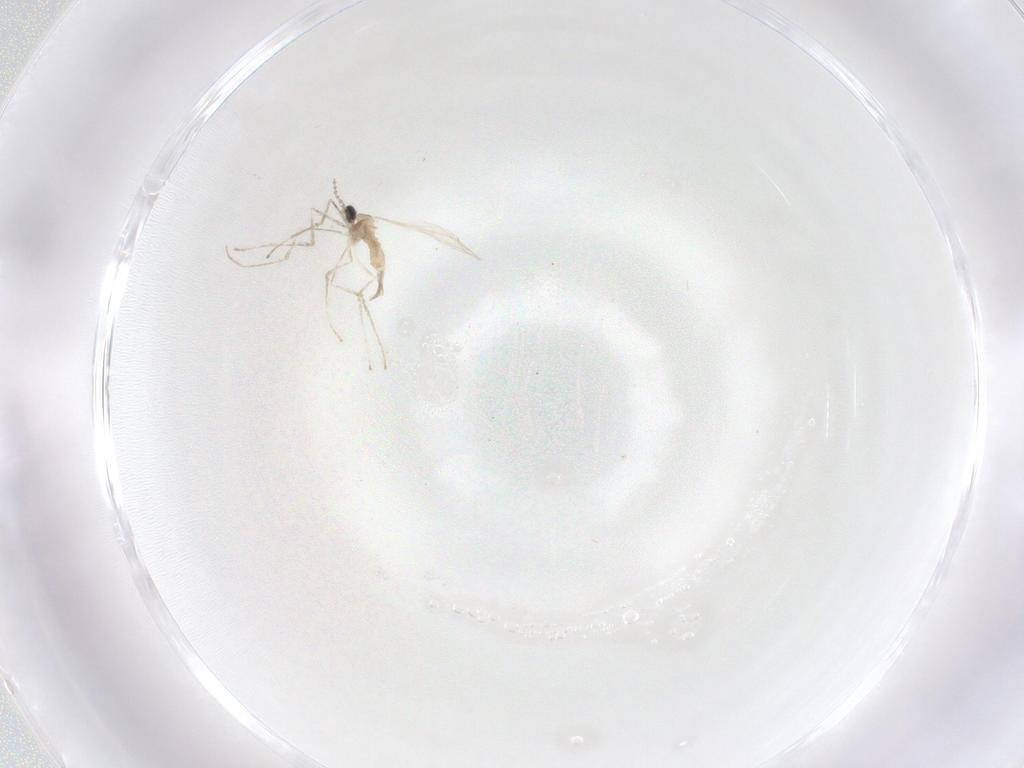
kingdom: Animalia
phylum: Arthropoda
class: Insecta
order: Diptera
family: Cecidomyiidae
